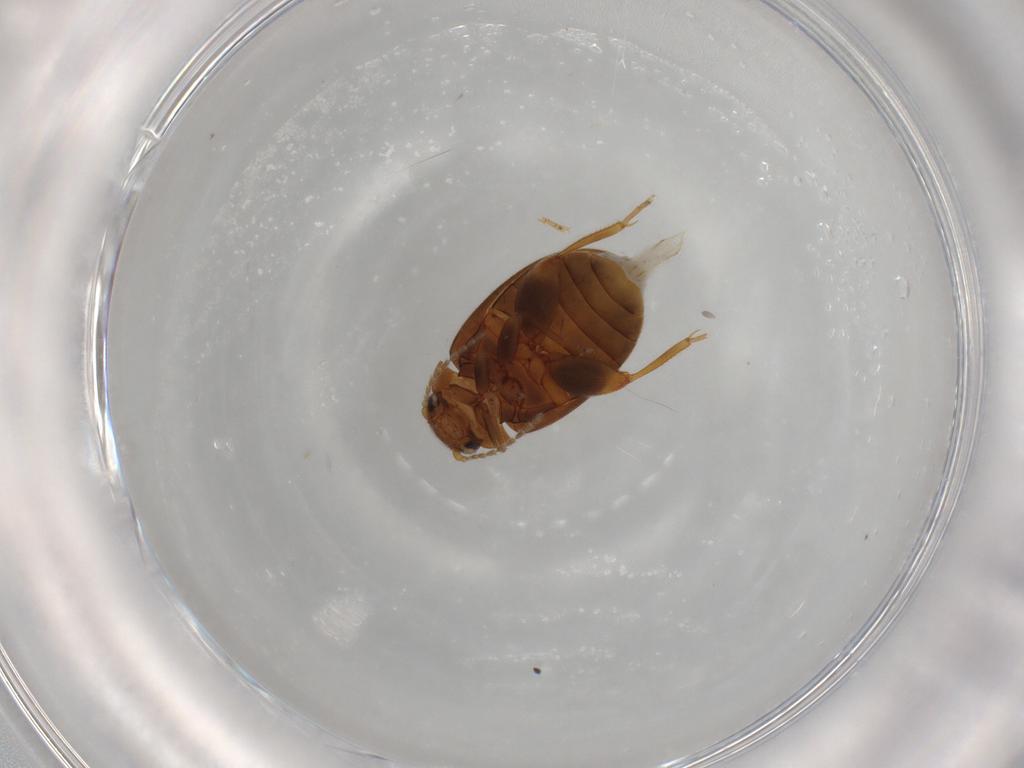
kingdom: Animalia
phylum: Arthropoda
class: Insecta
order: Coleoptera
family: Scirtidae
